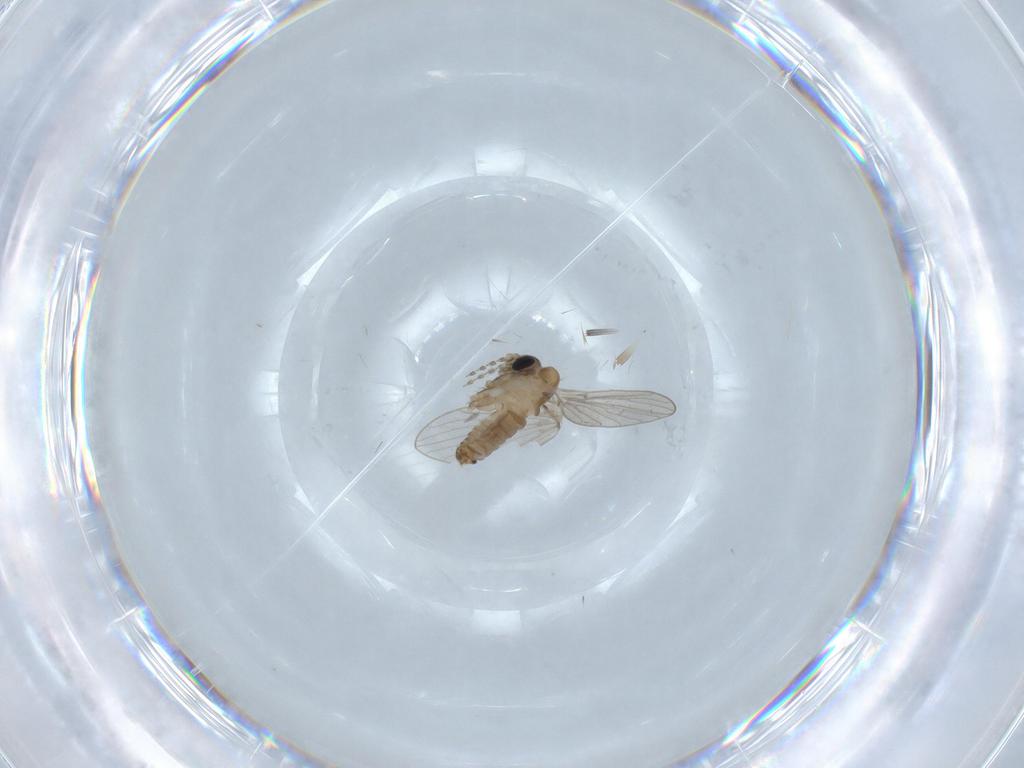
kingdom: Animalia
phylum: Arthropoda
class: Insecta
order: Diptera
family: Psychodidae
